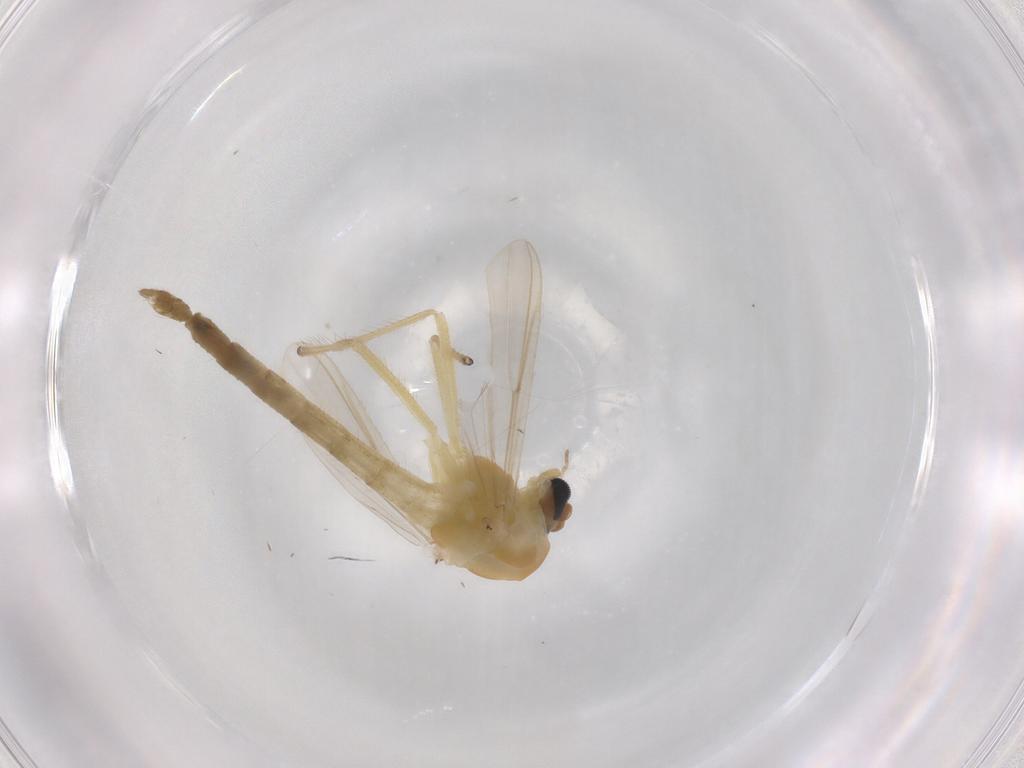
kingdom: Animalia
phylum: Arthropoda
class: Insecta
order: Diptera
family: Chironomidae
